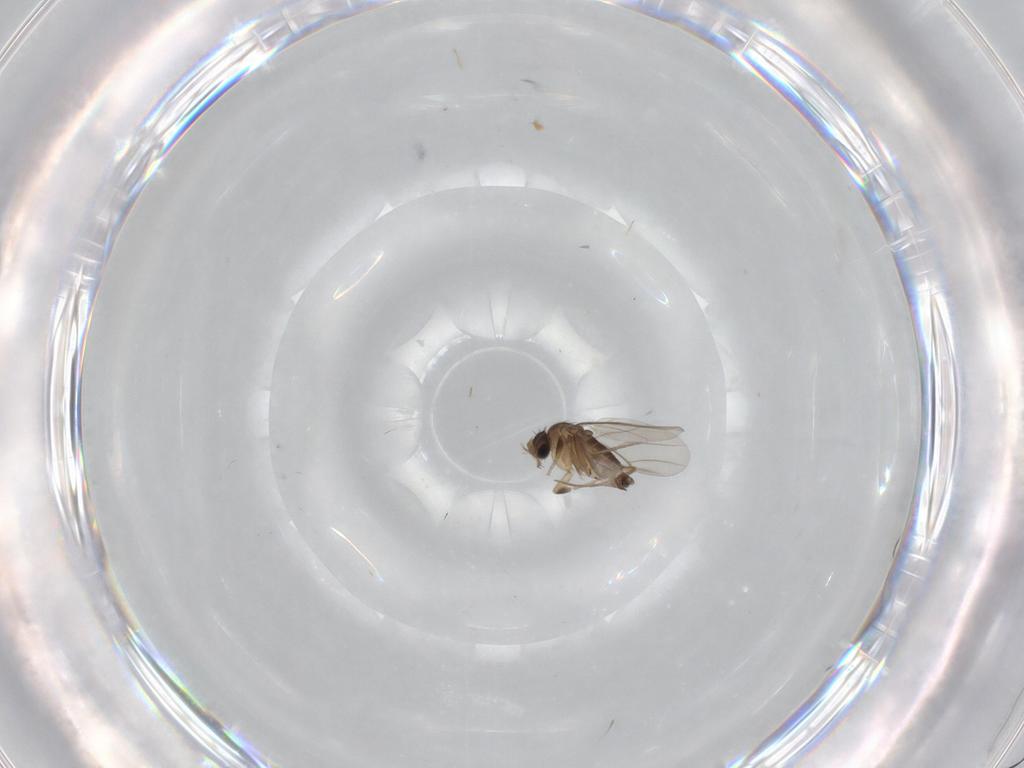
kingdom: Animalia
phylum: Arthropoda
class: Insecta
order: Diptera
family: Phoridae
